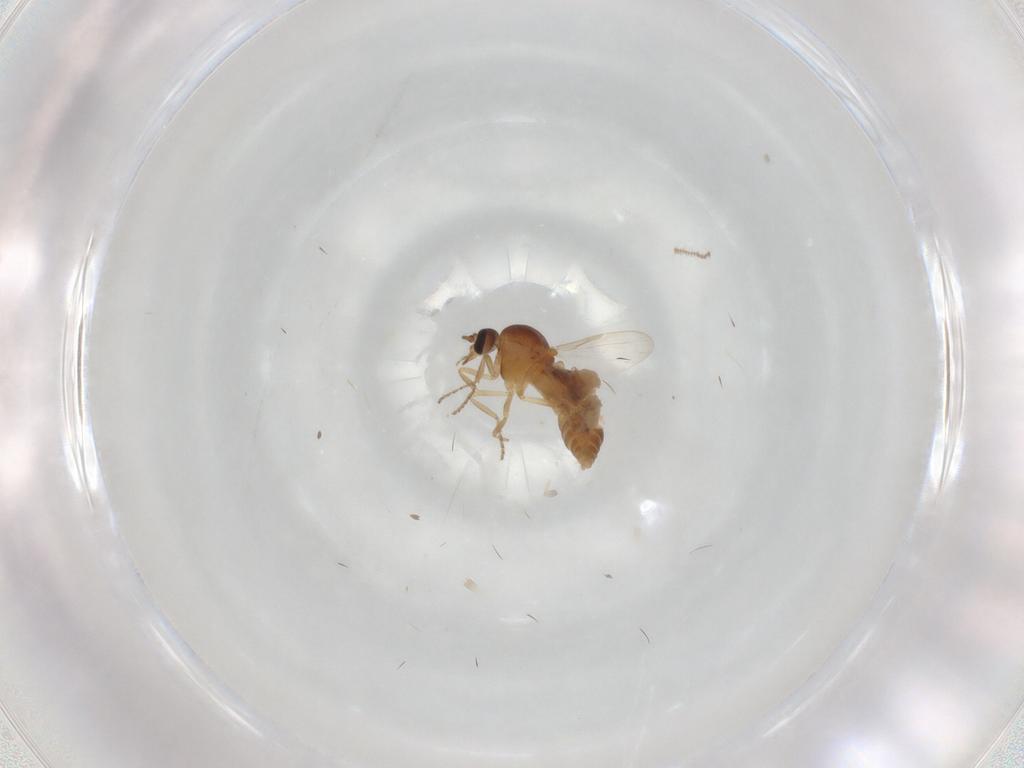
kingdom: Animalia
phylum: Arthropoda
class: Insecta
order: Diptera
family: Ceratopogonidae
